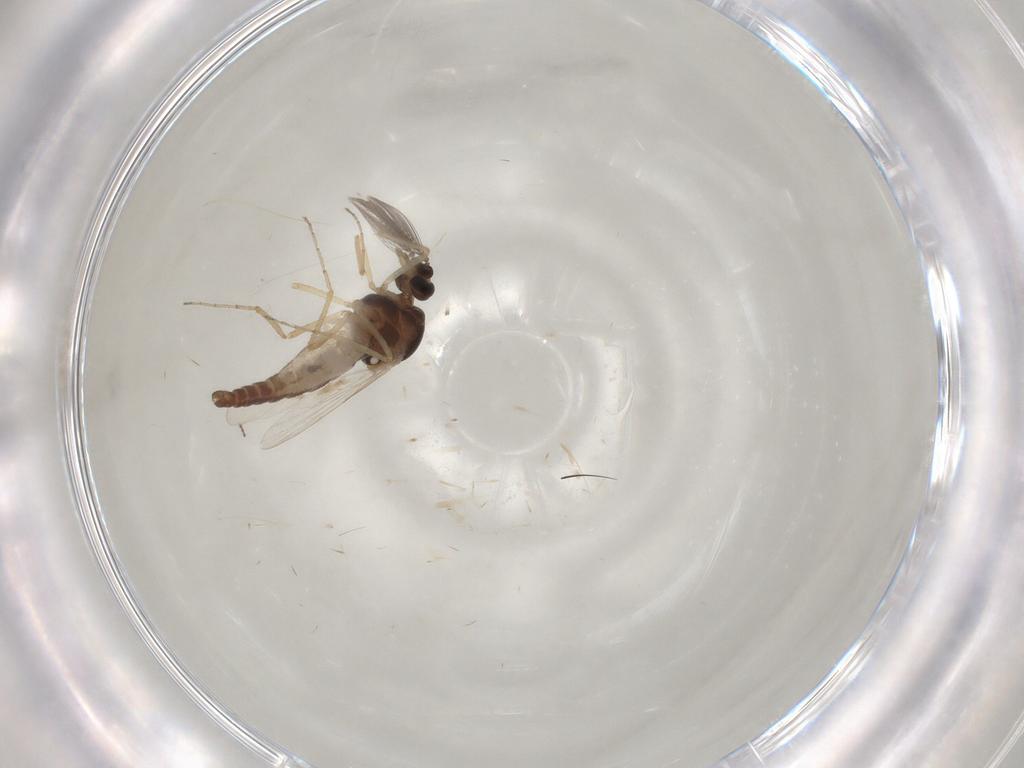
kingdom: Animalia
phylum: Arthropoda
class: Insecta
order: Diptera
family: Ceratopogonidae
